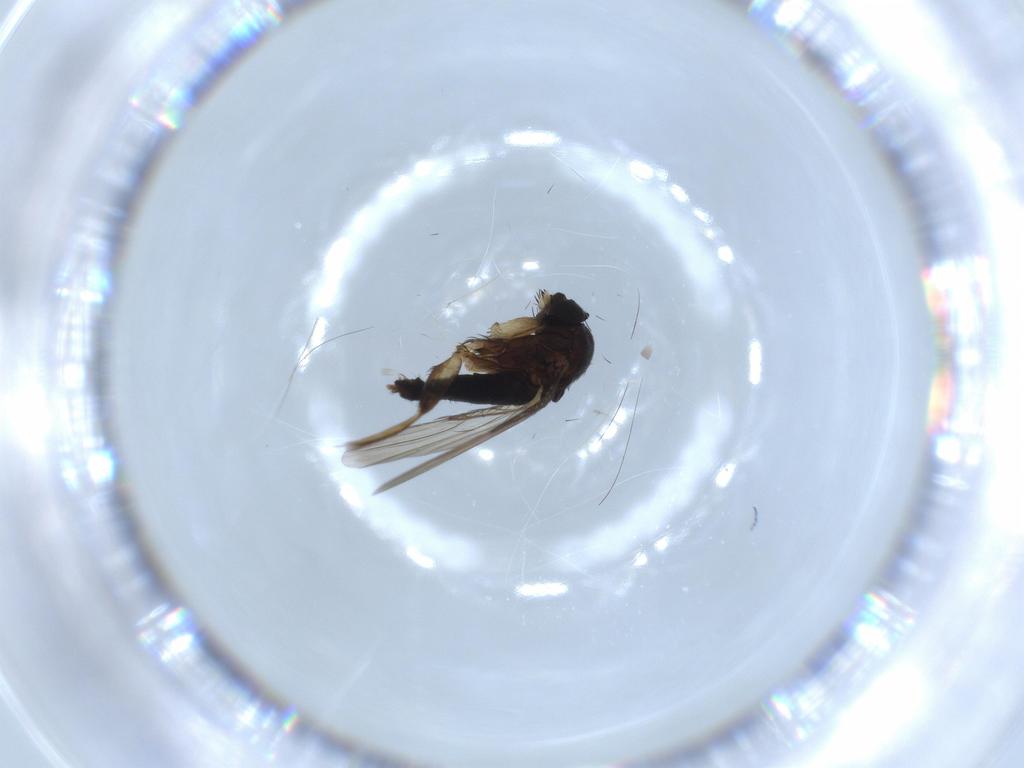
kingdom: Animalia
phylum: Arthropoda
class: Insecta
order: Diptera
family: Phoridae
